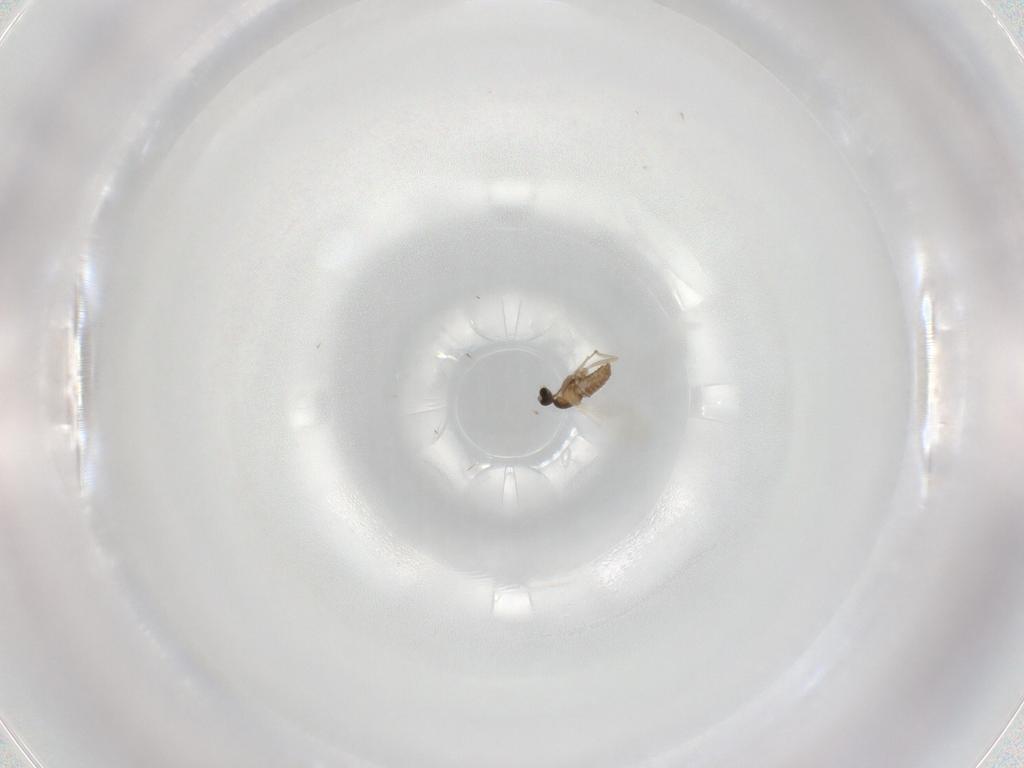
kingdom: Animalia
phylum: Arthropoda
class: Insecta
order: Diptera
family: Cecidomyiidae
